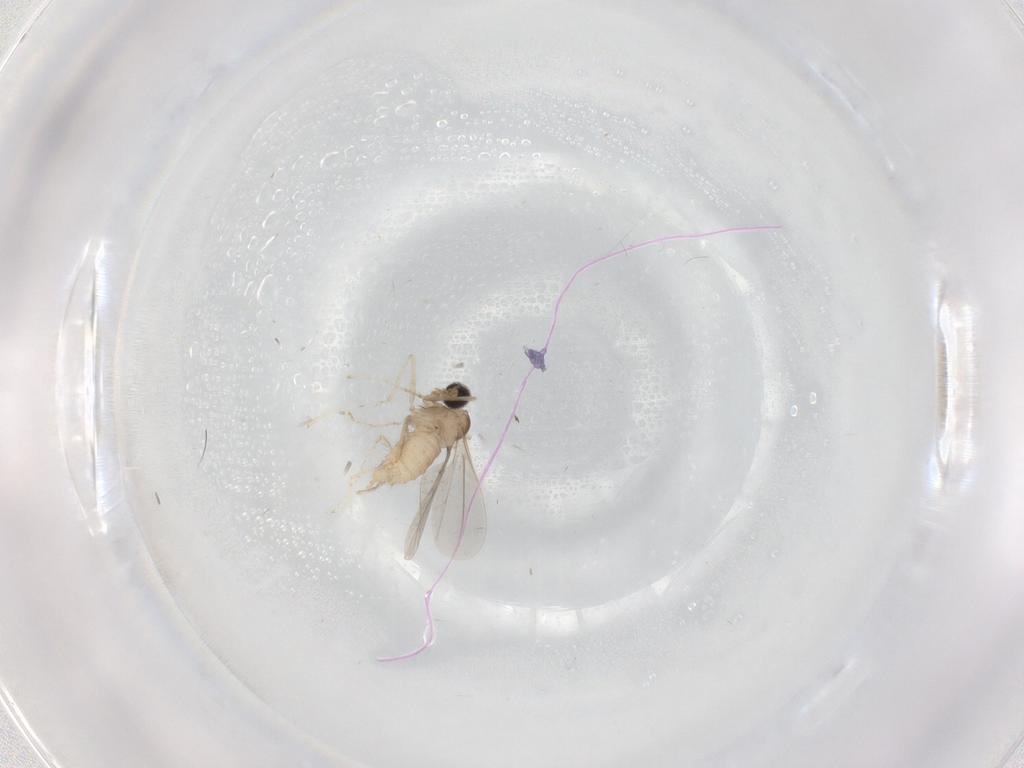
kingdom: Animalia
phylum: Arthropoda
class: Insecta
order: Diptera
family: Cecidomyiidae
